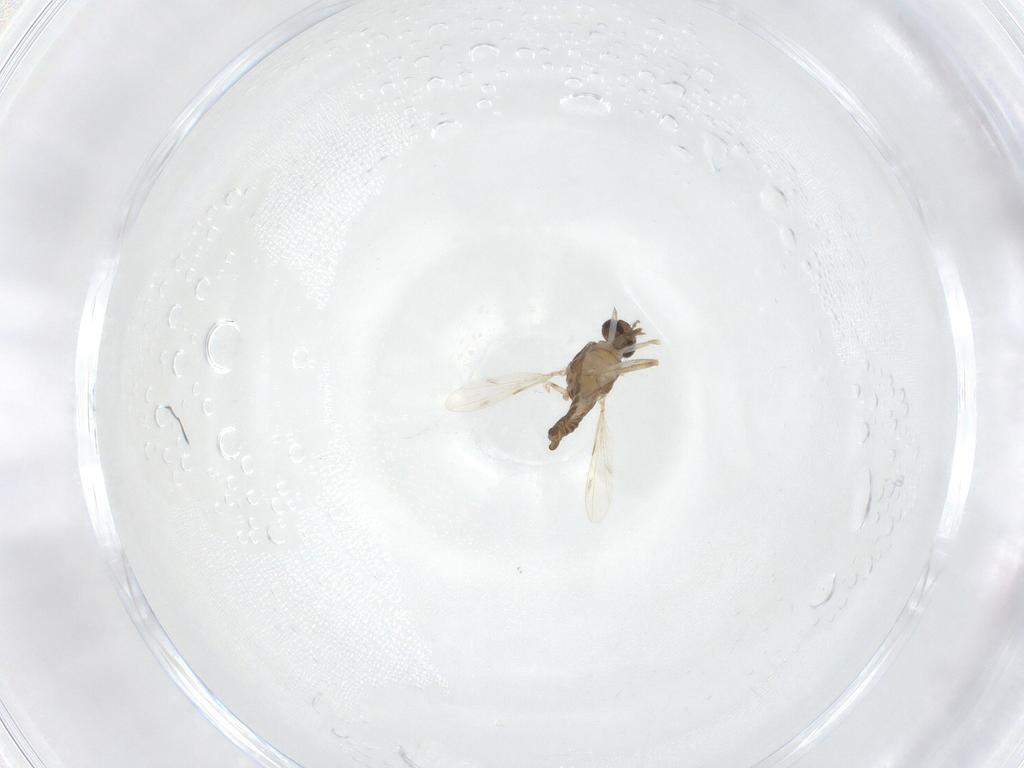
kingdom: Animalia
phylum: Arthropoda
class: Insecta
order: Diptera
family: Ceratopogonidae
